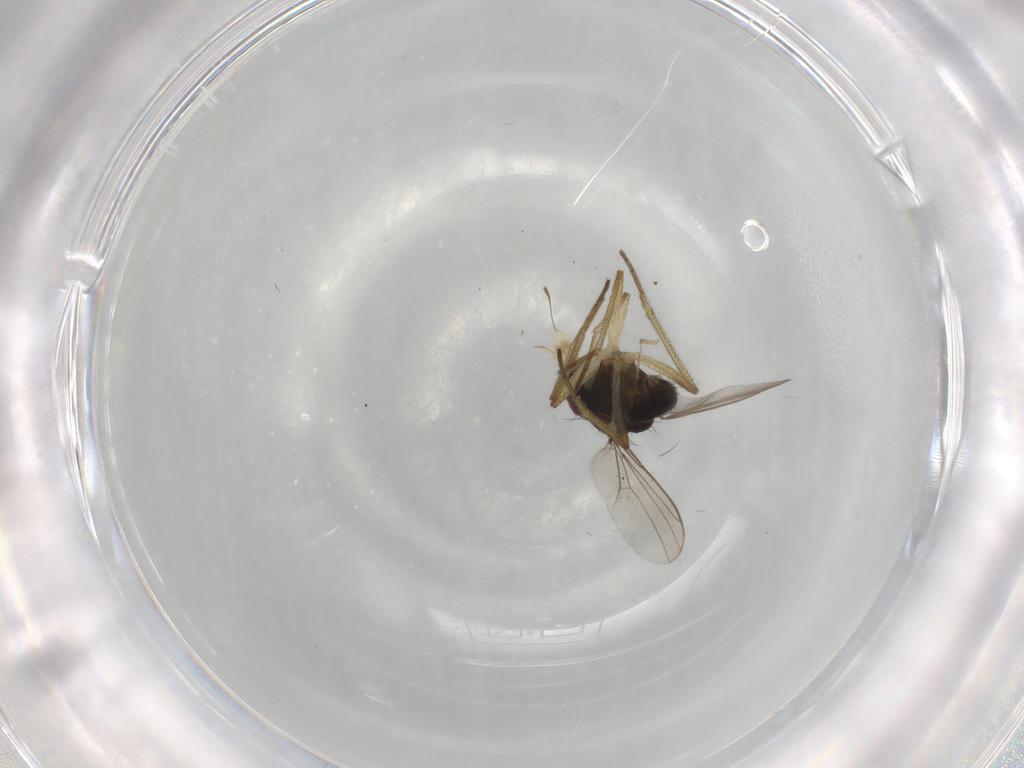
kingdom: Animalia
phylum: Arthropoda
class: Insecta
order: Diptera
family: Dolichopodidae
